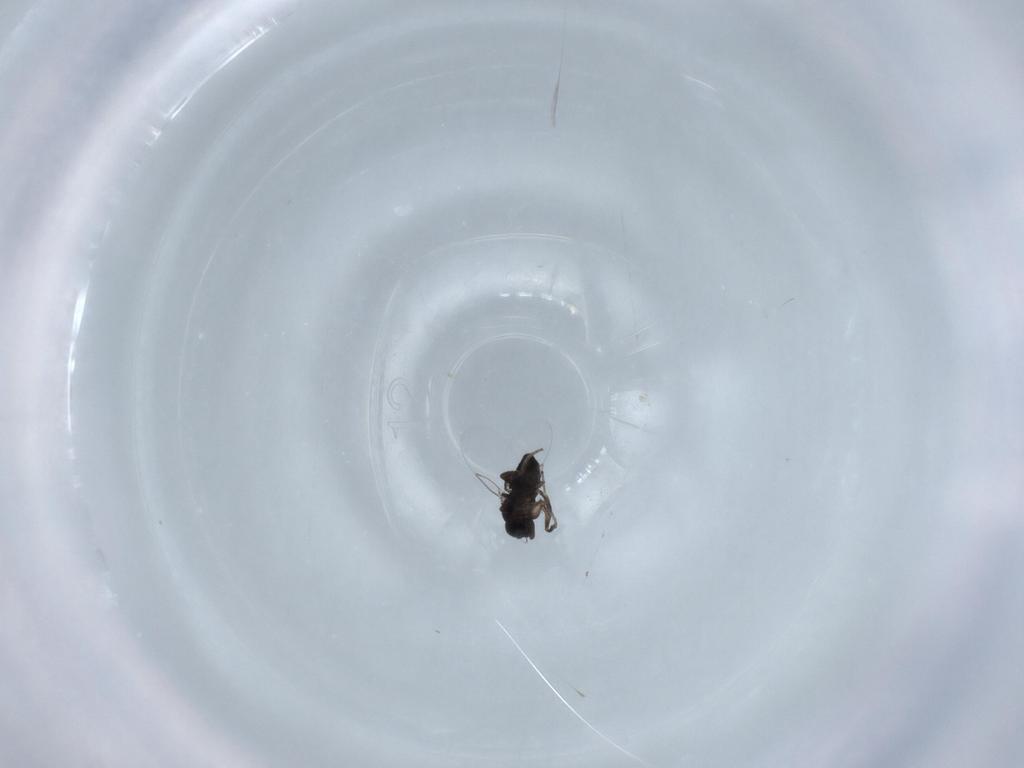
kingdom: Animalia
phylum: Arthropoda
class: Insecta
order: Diptera
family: Phoridae
